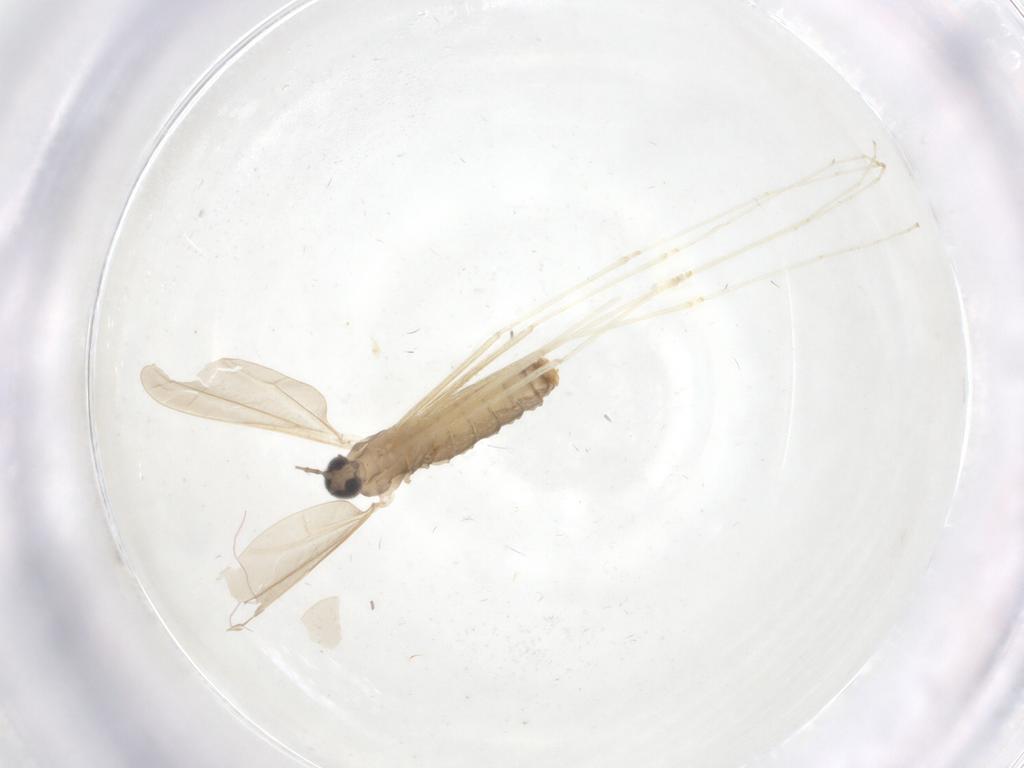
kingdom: Animalia
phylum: Arthropoda
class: Insecta
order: Diptera
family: Cecidomyiidae
